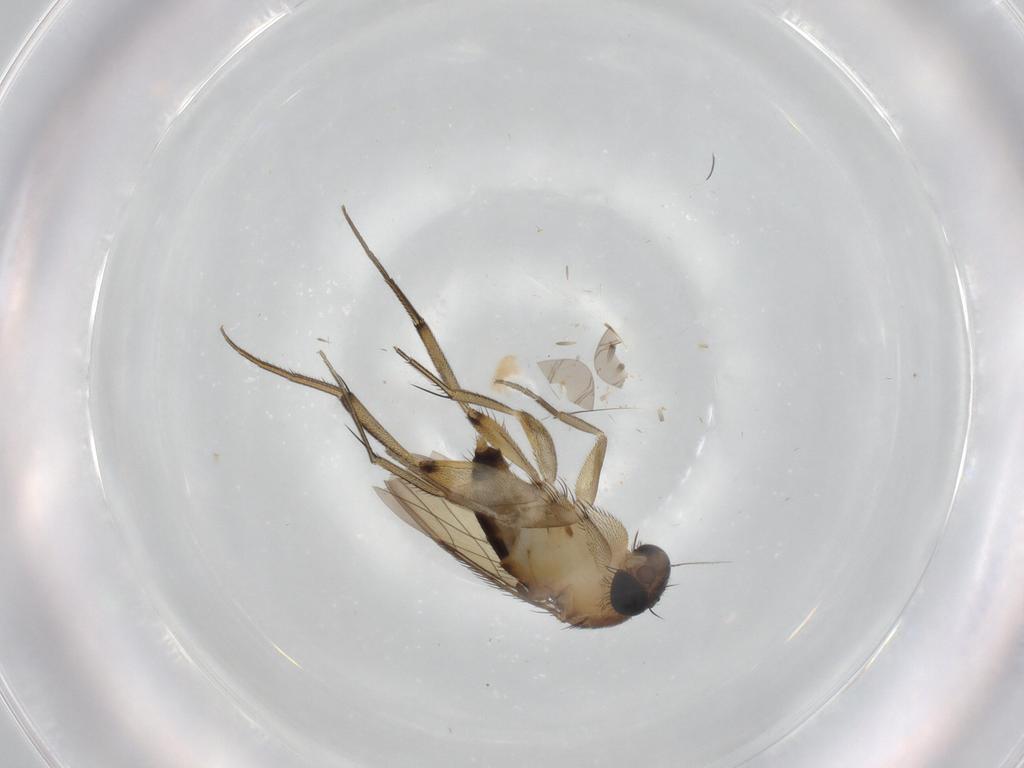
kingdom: Animalia
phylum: Arthropoda
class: Insecta
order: Diptera
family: Phoridae
